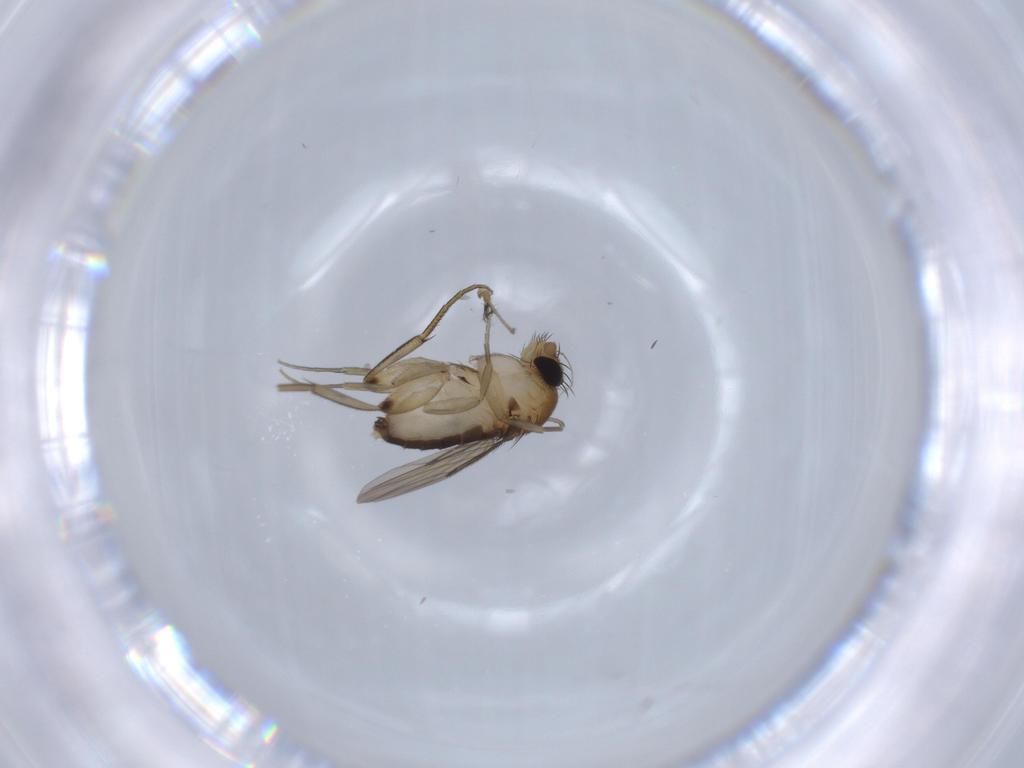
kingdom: Animalia
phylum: Arthropoda
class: Insecta
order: Diptera
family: Phoridae
